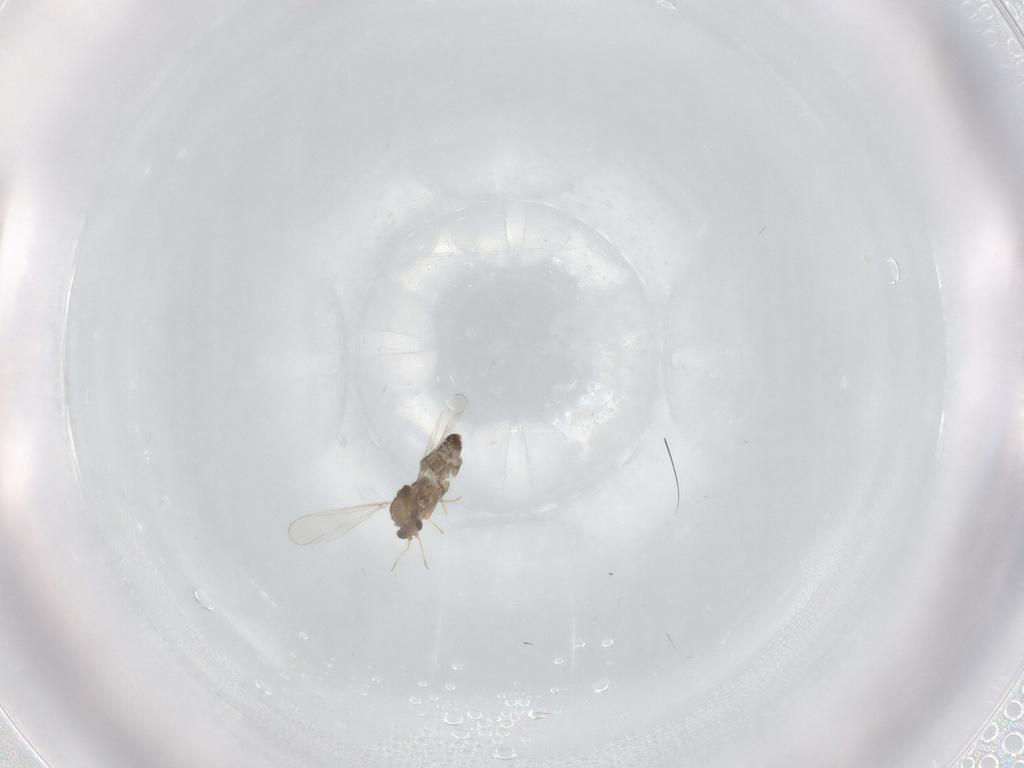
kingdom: Animalia
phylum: Arthropoda
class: Insecta
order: Diptera
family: Chironomidae
